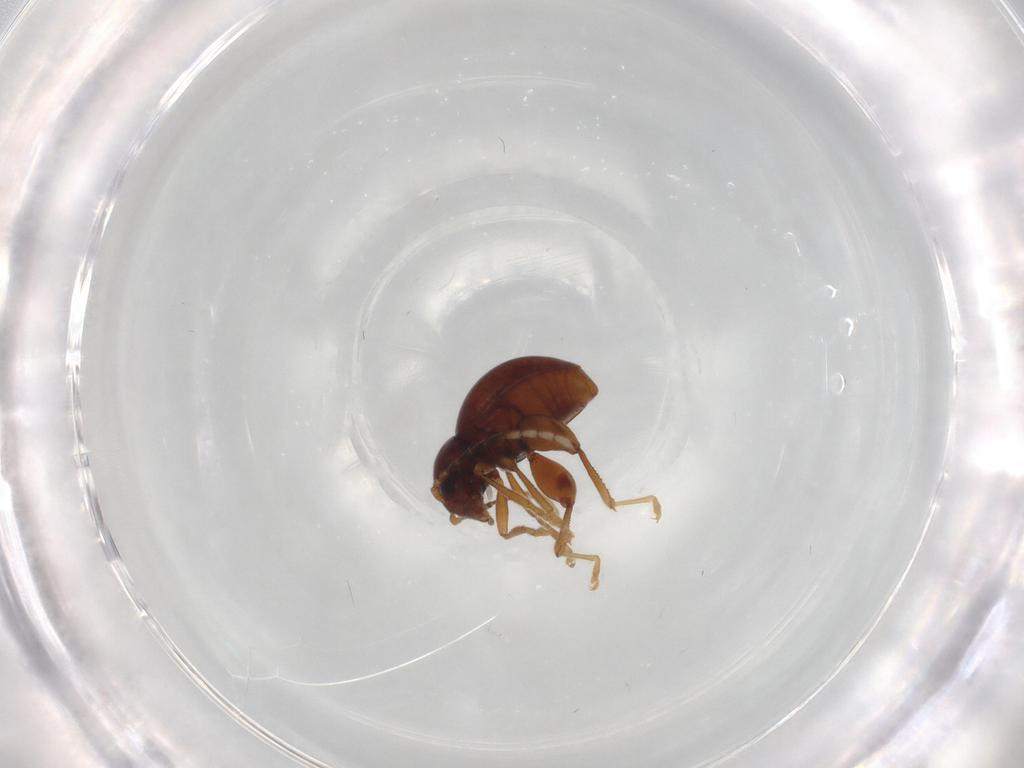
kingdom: Animalia
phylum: Arthropoda
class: Insecta
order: Coleoptera
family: Chrysomelidae
